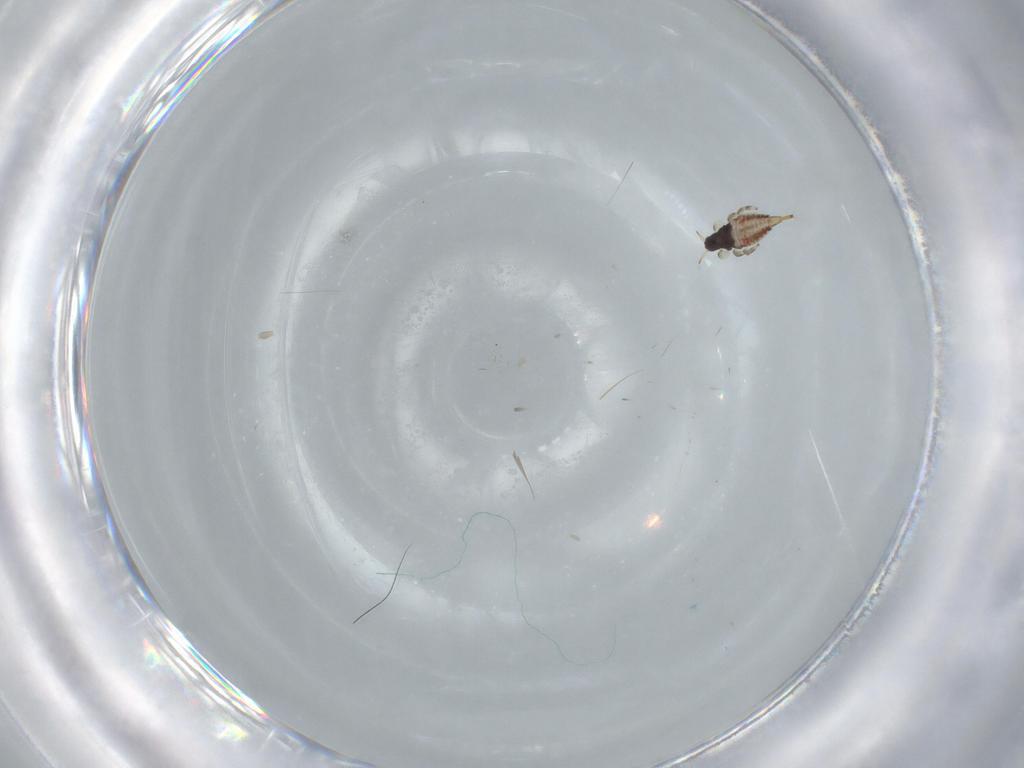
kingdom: Animalia
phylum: Arthropoda
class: Insecta
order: Thysanoptera
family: Phlaeothripidae
